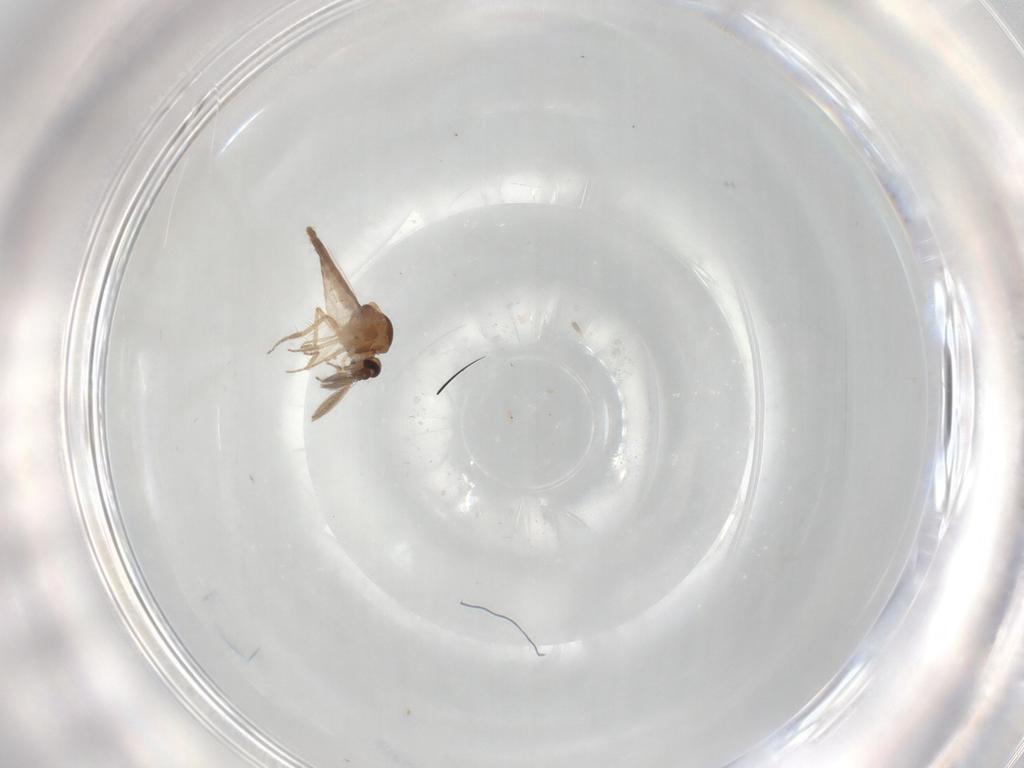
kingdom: Animalia
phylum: Arthropoda
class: Insecta
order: Diptera
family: Ceratopogonidae
